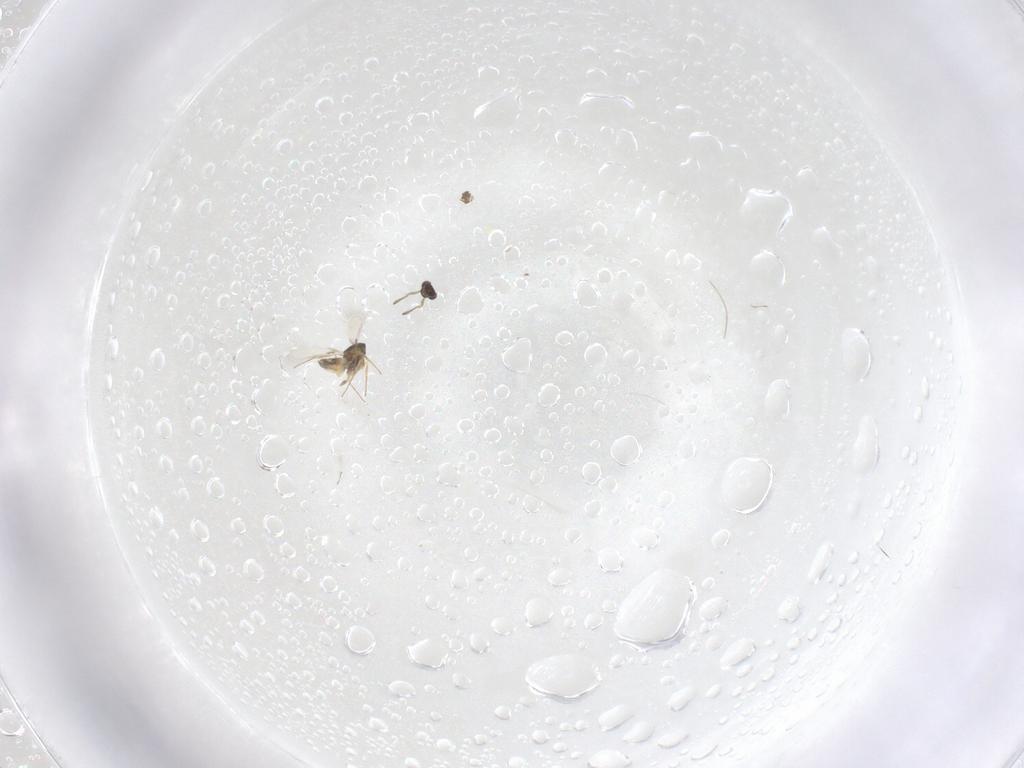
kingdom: Animalia
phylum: Arthropoda
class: Insecta
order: Hymenoptera
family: Mymaridae
